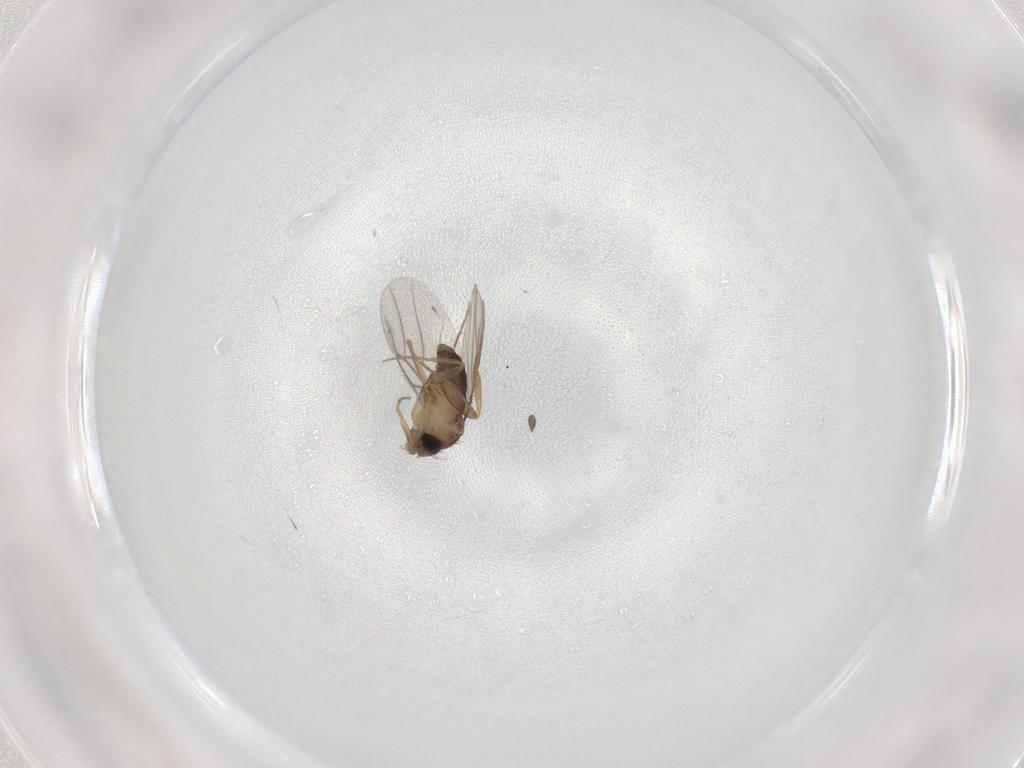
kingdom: Animalia
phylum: Arthropoda
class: Insecta
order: Diptera
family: Phoridae
